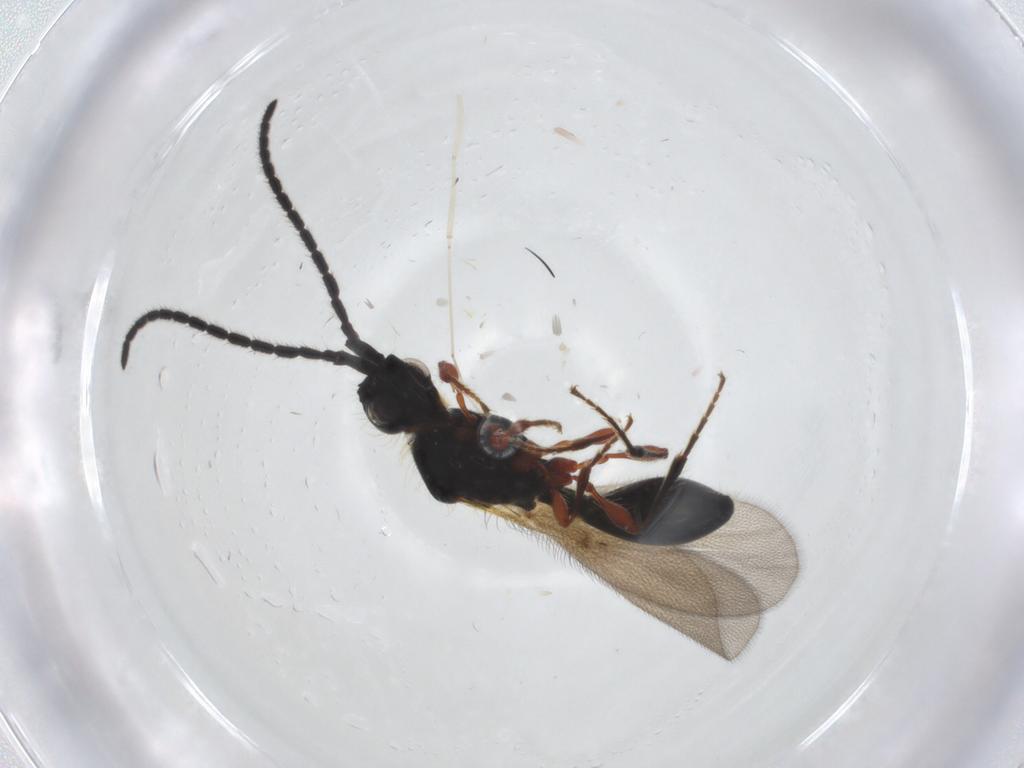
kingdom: Animalia
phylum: Arthropoda
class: Insecta
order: Hymenoptera
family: Diapriidae
